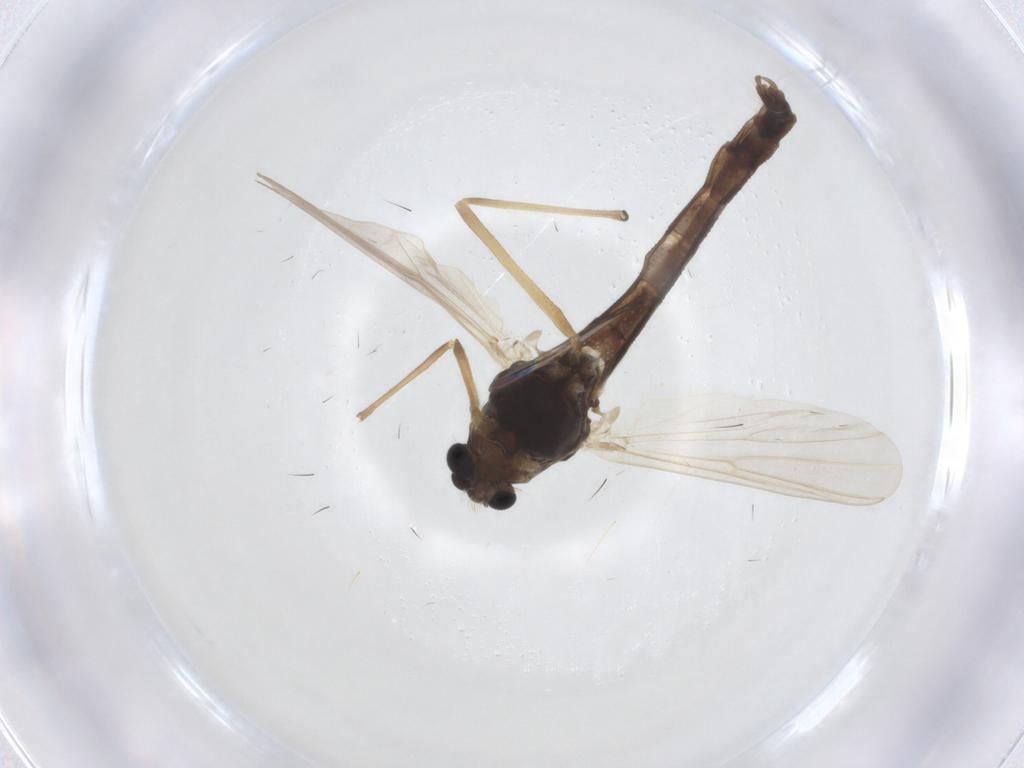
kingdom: Animalia
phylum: Arthropoda
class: Insecta
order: Diptera
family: Chironomidae
